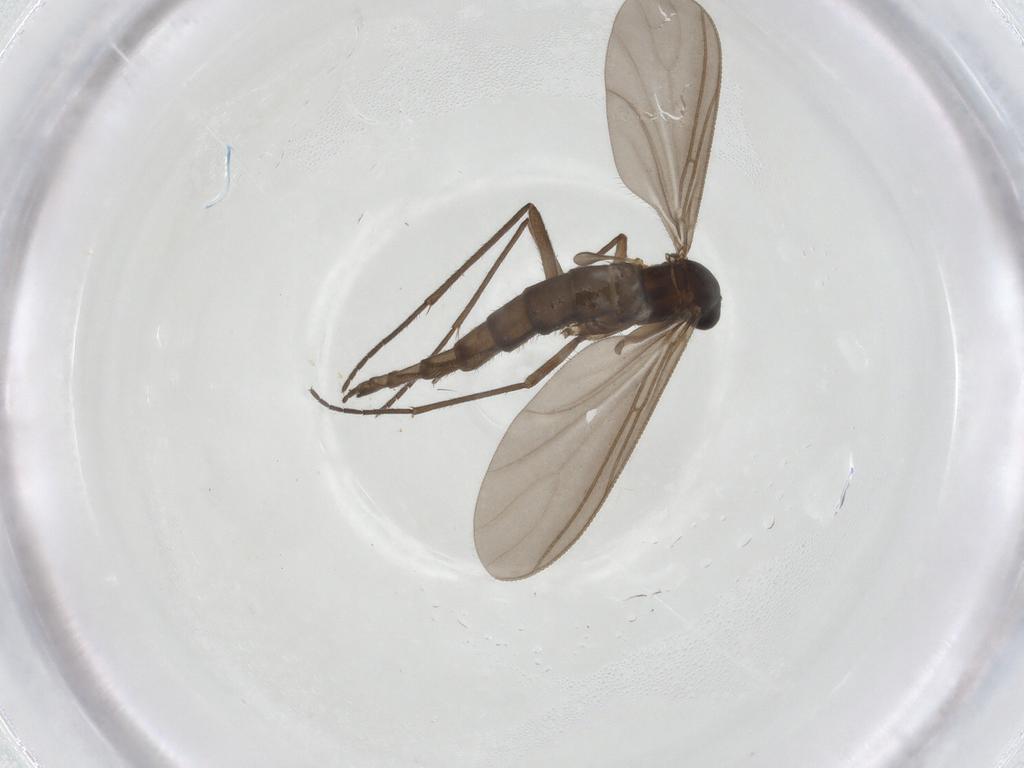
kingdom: Animalia
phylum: Arthropoda
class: Insecta
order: Diptera
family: Sciaridae
